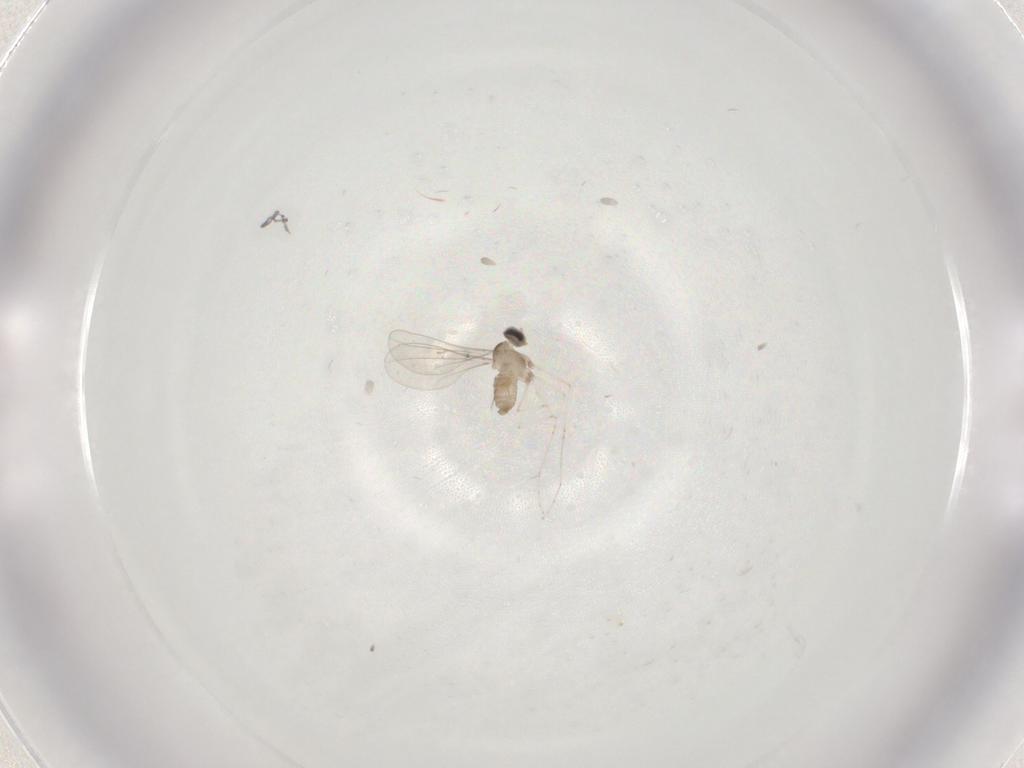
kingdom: Animalia
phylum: Arthropoda
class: Insecta
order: Diptera
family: Cecidomyiidae
